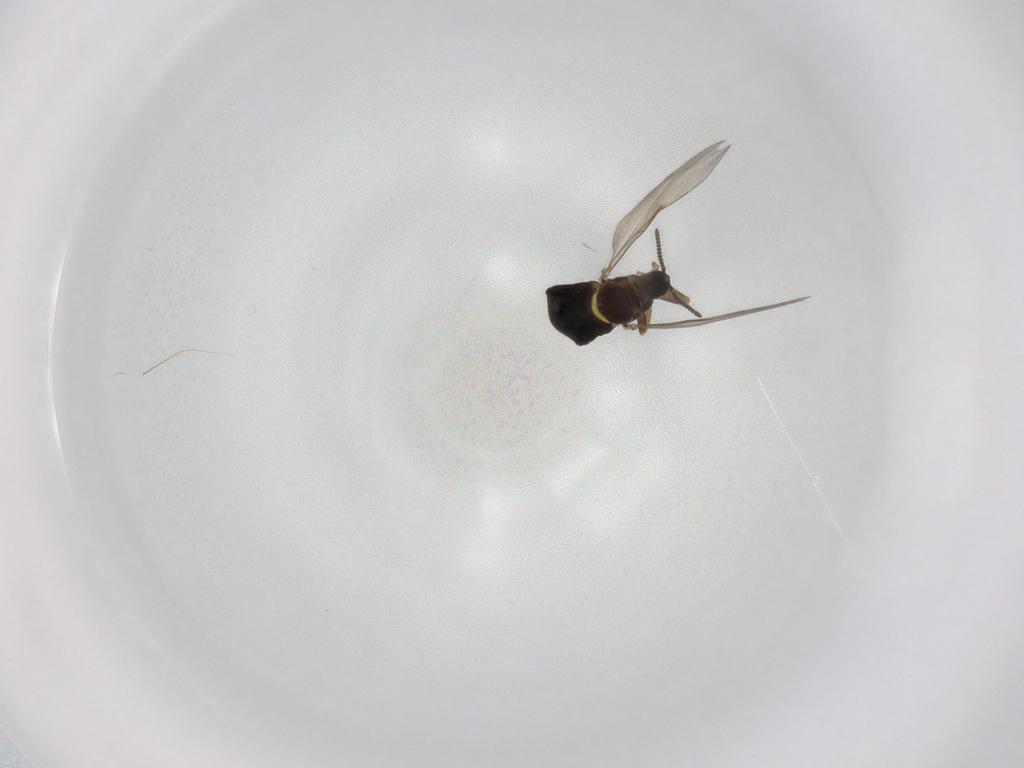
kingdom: Animalia
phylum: Arthropoda
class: Insecta
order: Diptera
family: Scatopsidae
